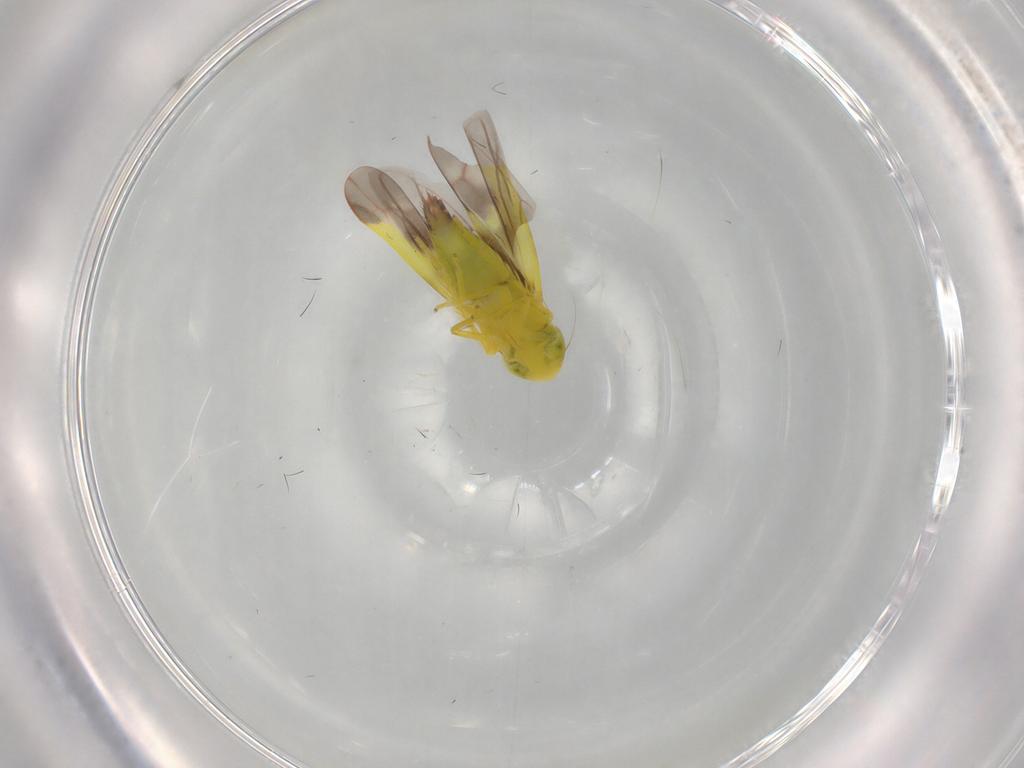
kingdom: Animalia
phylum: Arthropoda
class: Insecta
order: Hemiptera
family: Cicadellidae
